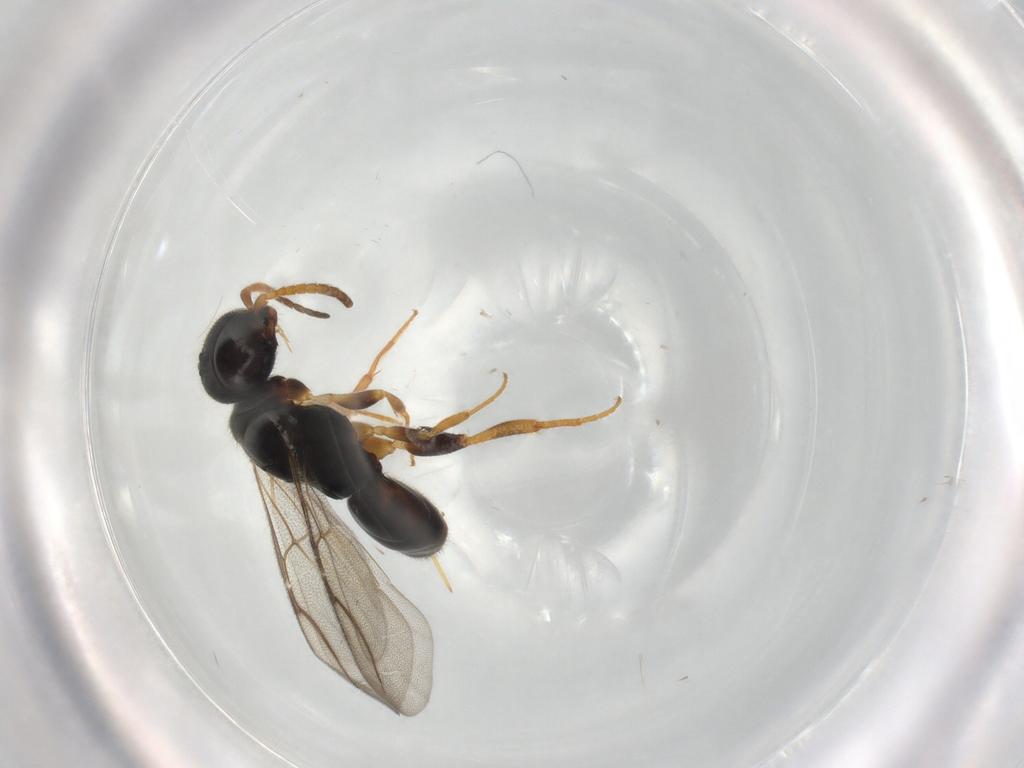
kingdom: Animalia
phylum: Arthropoda
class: Insecta
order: Hymenoptera
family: Bethylidae
